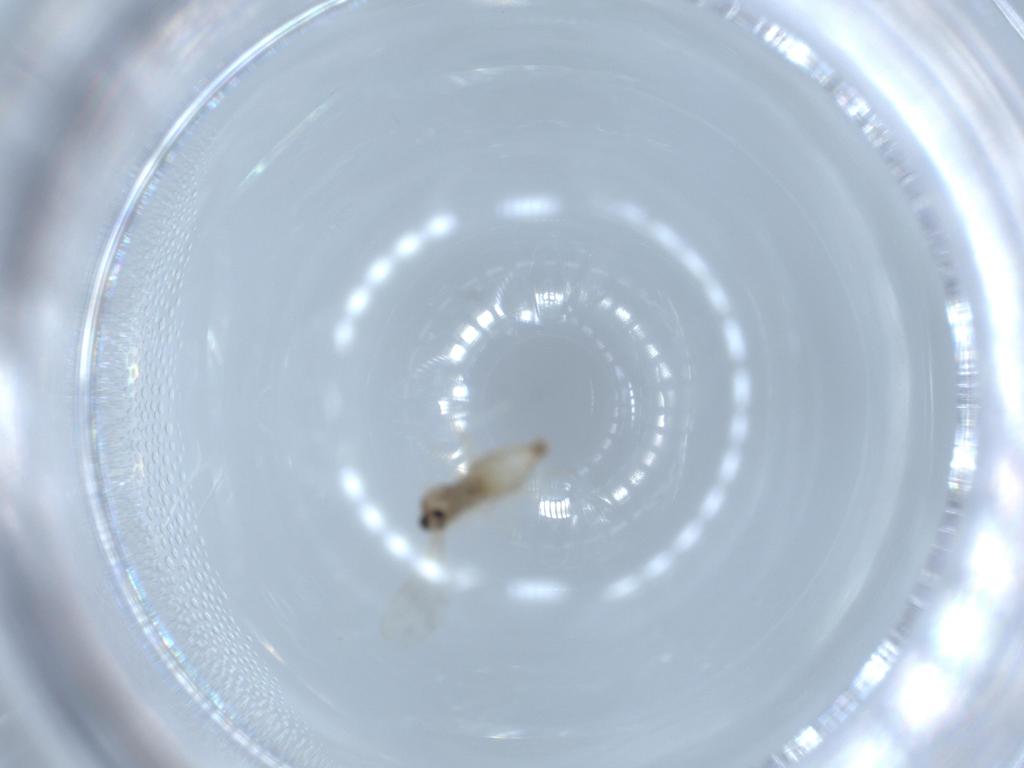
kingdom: Animalia
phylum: Arthropoda
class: Insecta
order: Diptera
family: Cecidomyiidae
